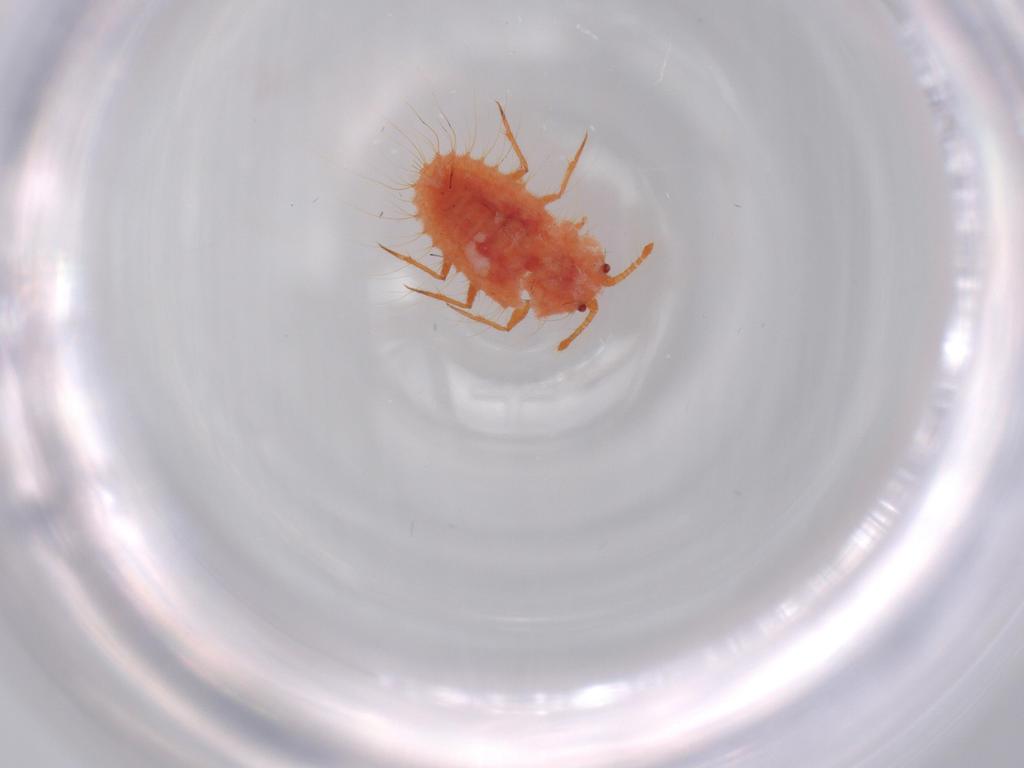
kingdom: Animalia
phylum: Arthropoda
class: Insecta
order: Hemiptera
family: Coccoidea_incertae_sedis
